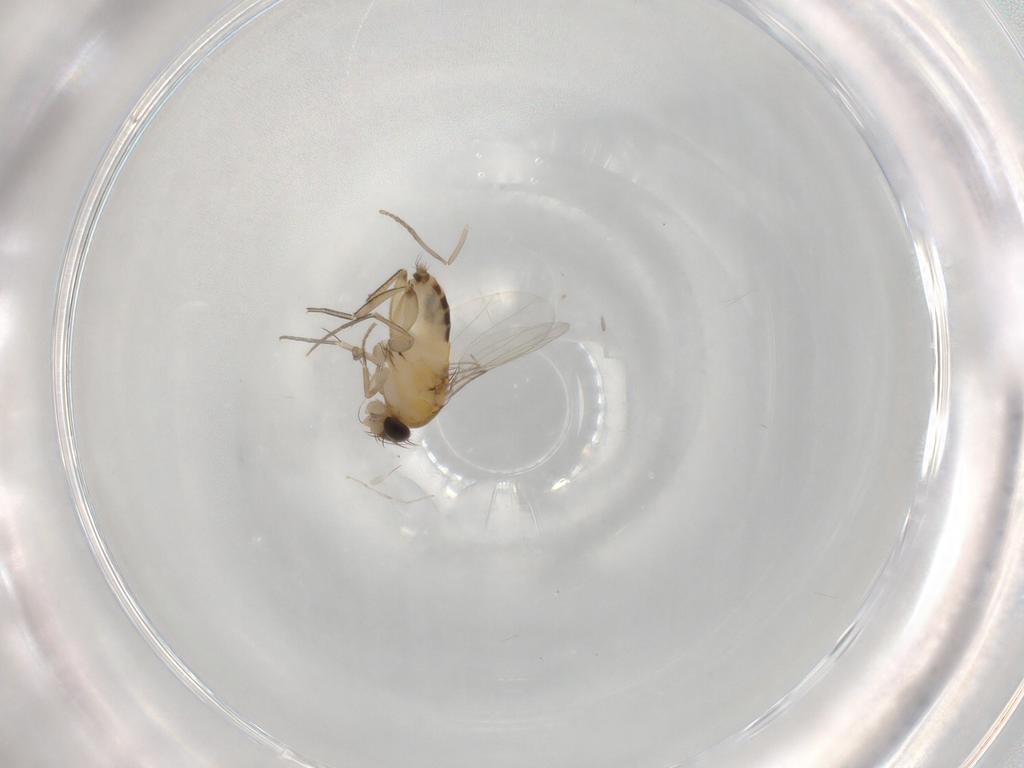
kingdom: Animalia
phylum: Arthropoda
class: Insecta
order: Diptera
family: Phoridae
